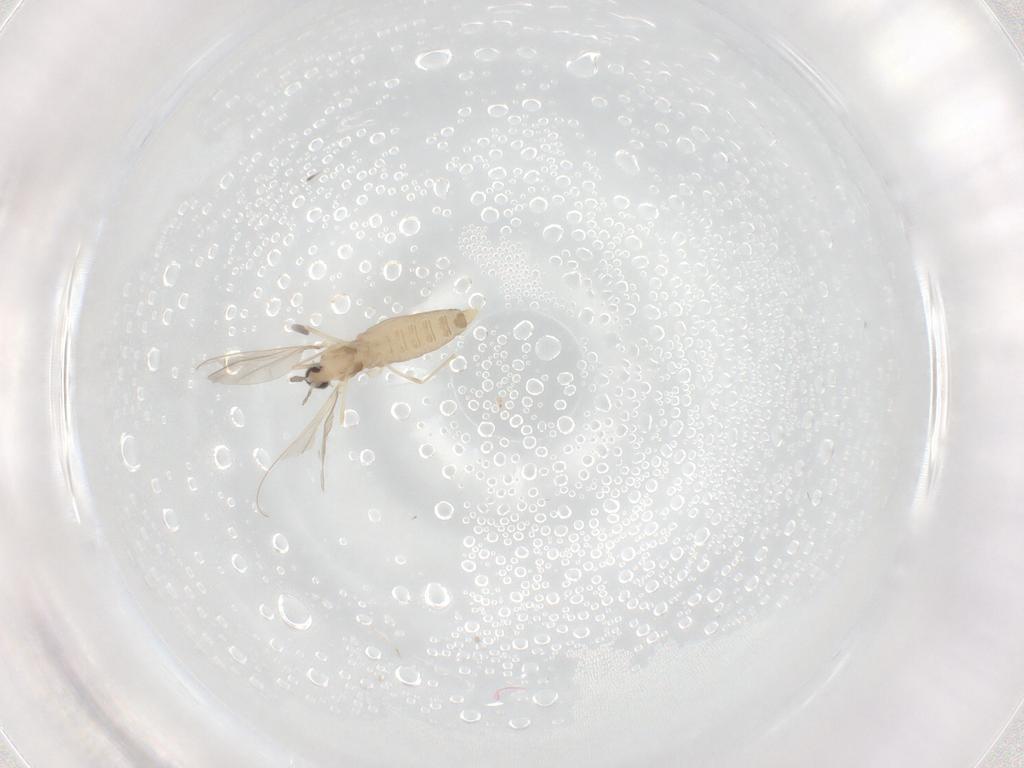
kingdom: Animalia
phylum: Arthropoda
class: Insecta
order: Diptera
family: Cecidomyiidae
